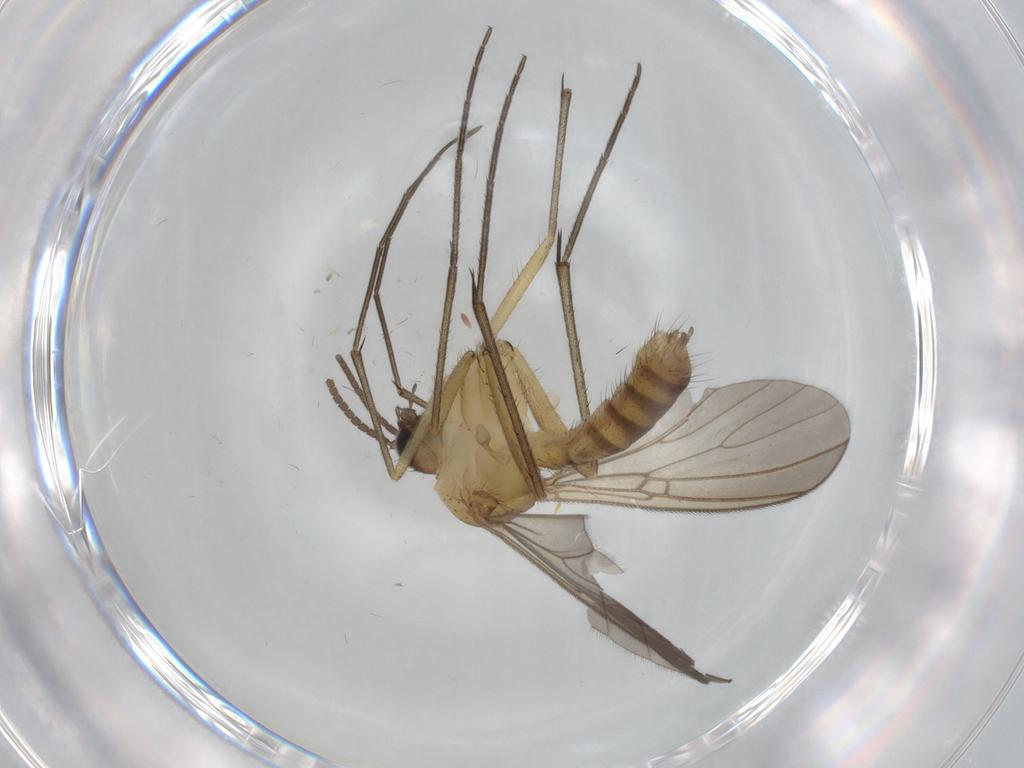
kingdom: Animalia
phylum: Arthropoda
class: Insecta
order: Diptera
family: Mycetophilidae
